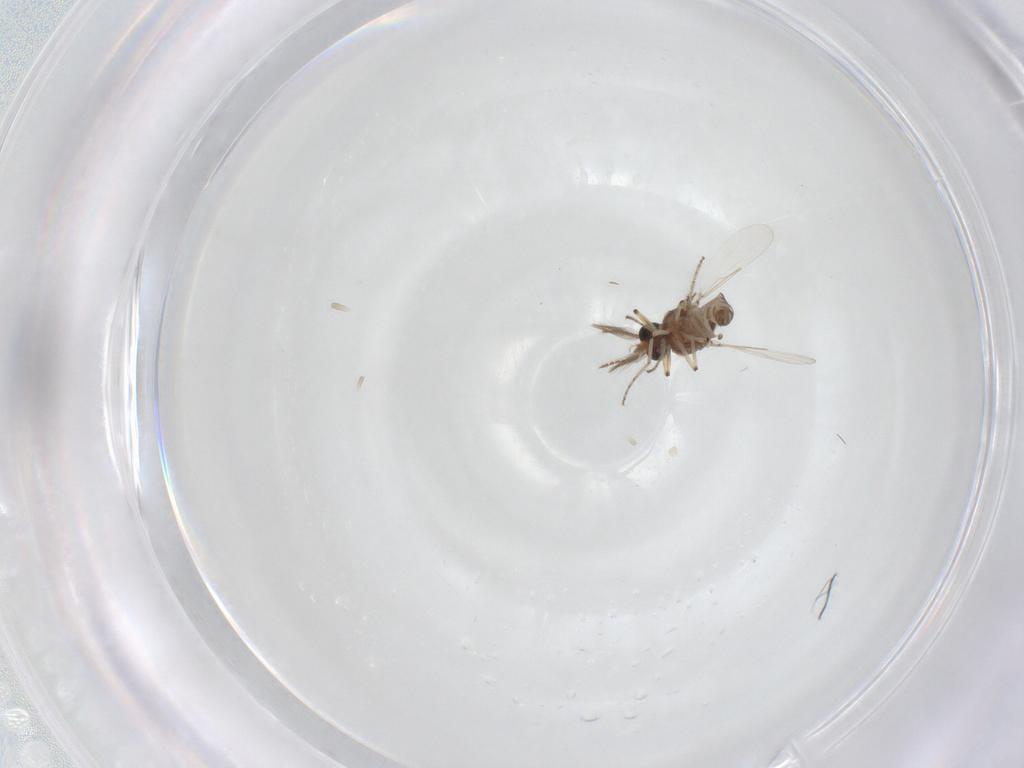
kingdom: Animalia
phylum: Arthropoda
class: Insecta
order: Diptera
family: Ceratopogonidae
